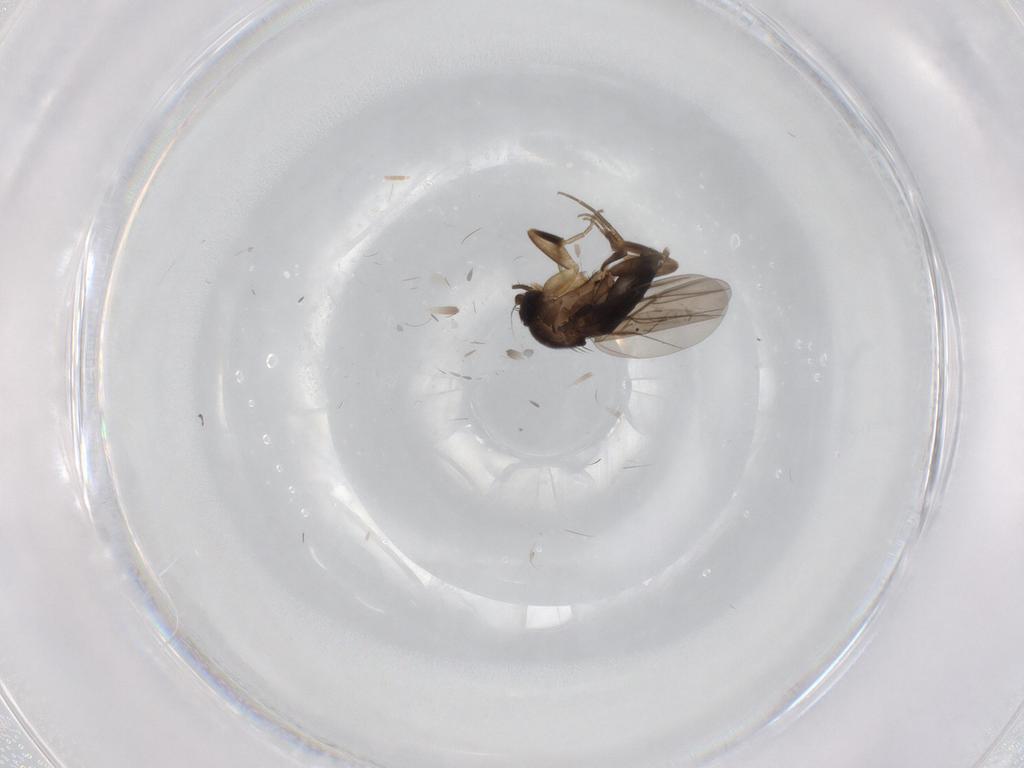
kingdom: Animalia
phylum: Arthropoda
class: Insecta
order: Diptera
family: Phoridae
